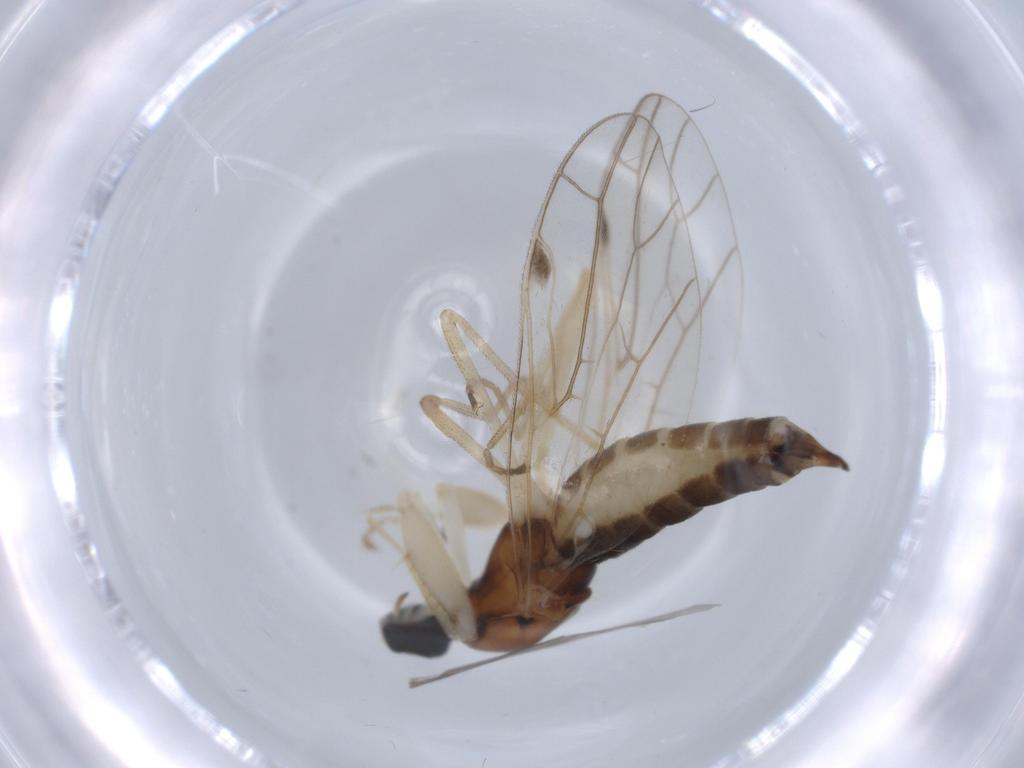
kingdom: Animalia
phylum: Arthropoda
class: Insecta
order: Diptera
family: Empididae
